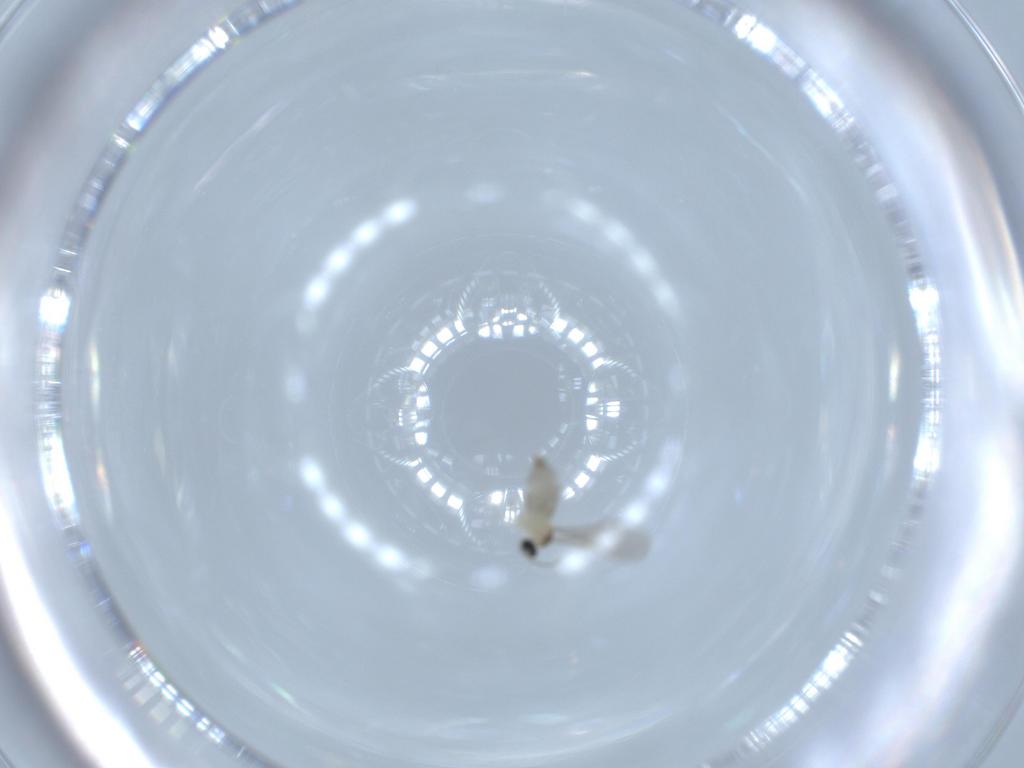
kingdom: Animalia
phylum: Arthropoda
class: Insecta
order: Diptera
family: Cecidomyiidae
